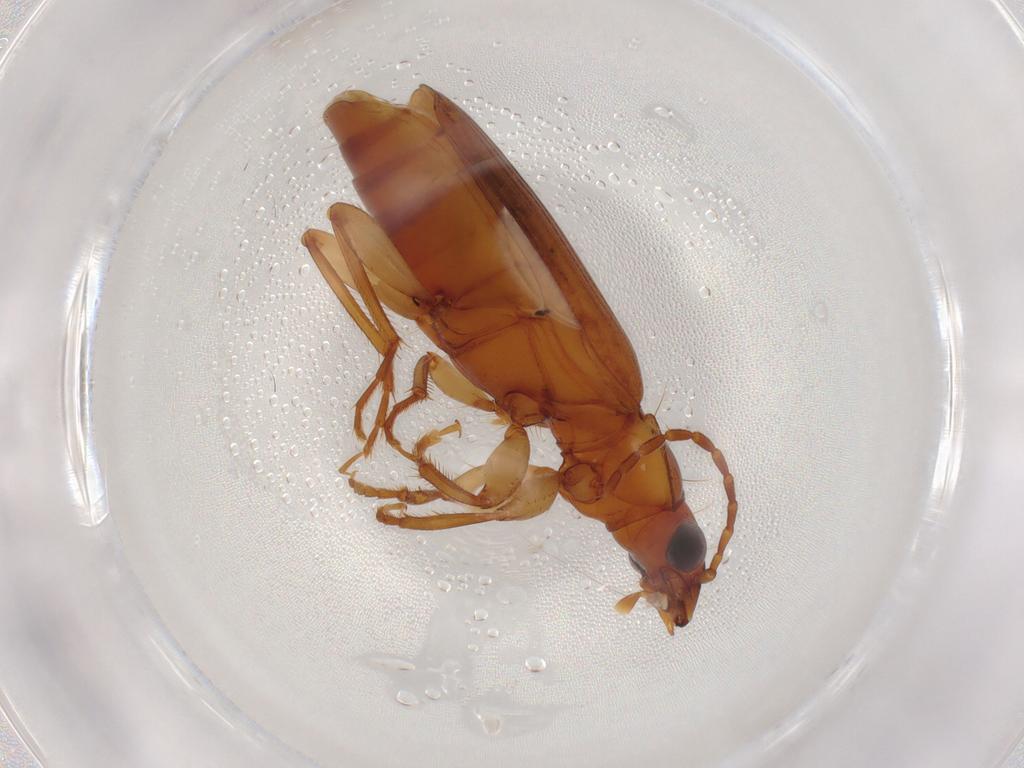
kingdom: Animalia
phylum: Arthropoda
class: Insecta
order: Coleoptera
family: Carabidae
